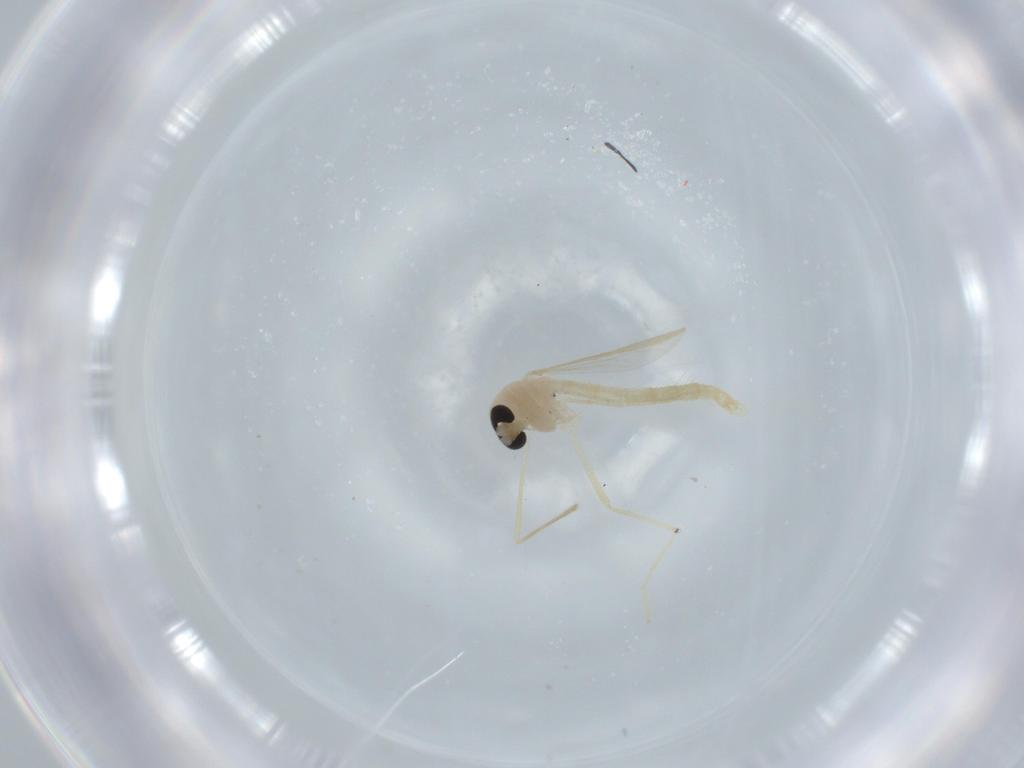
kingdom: Animalia
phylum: Arthropoda
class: Insecta
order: Diptera
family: Chironomidae
